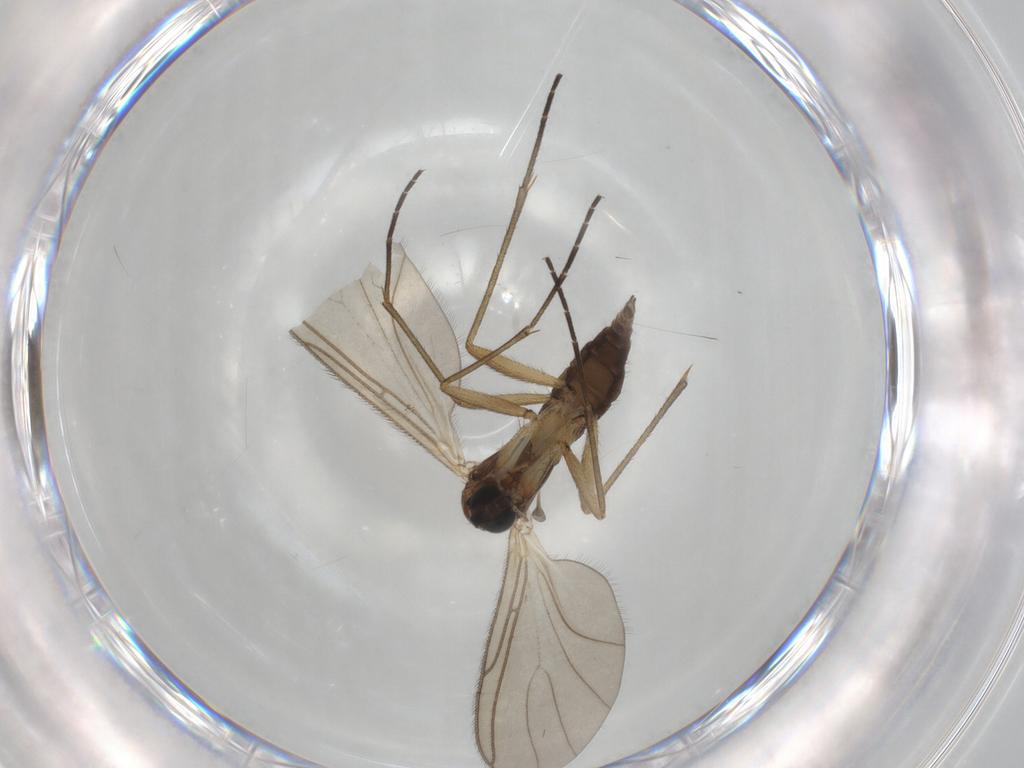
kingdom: Animalia
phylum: Arthropoda
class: Insecta
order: Diptera
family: Sciaridae
